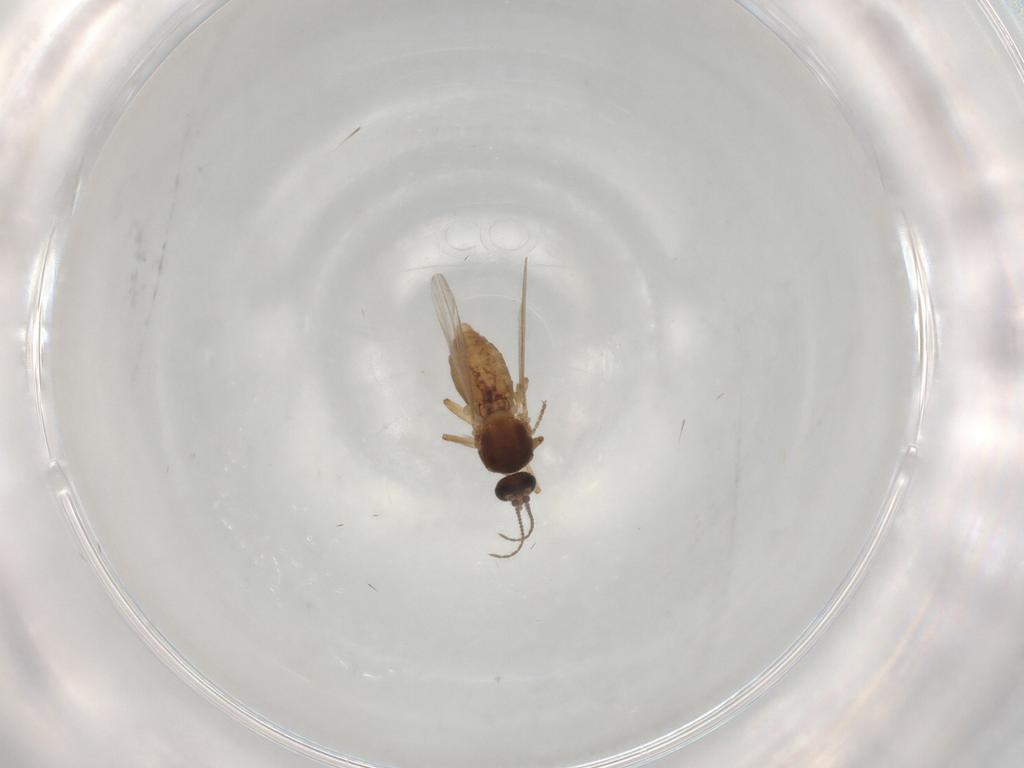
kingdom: Animalia
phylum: Arthropoda
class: Insecta
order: Diptera
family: Ceratopogonidae
